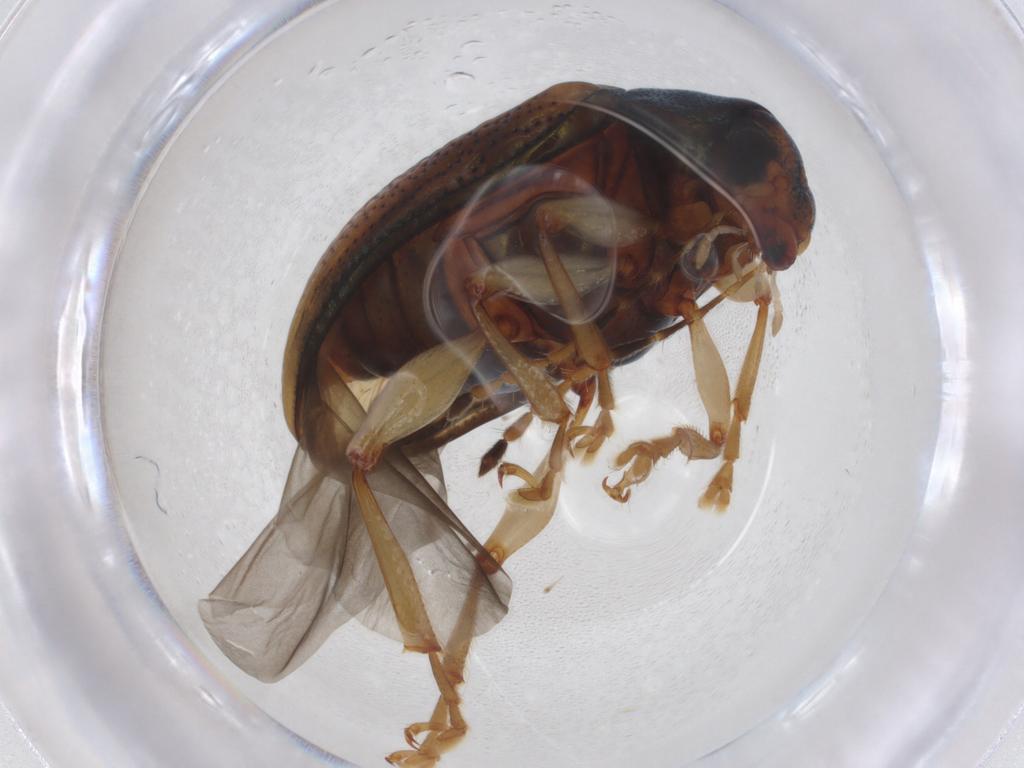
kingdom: Animalia
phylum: Arthropoda
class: Insecta
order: Coleoptera
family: Chrysomelidae
